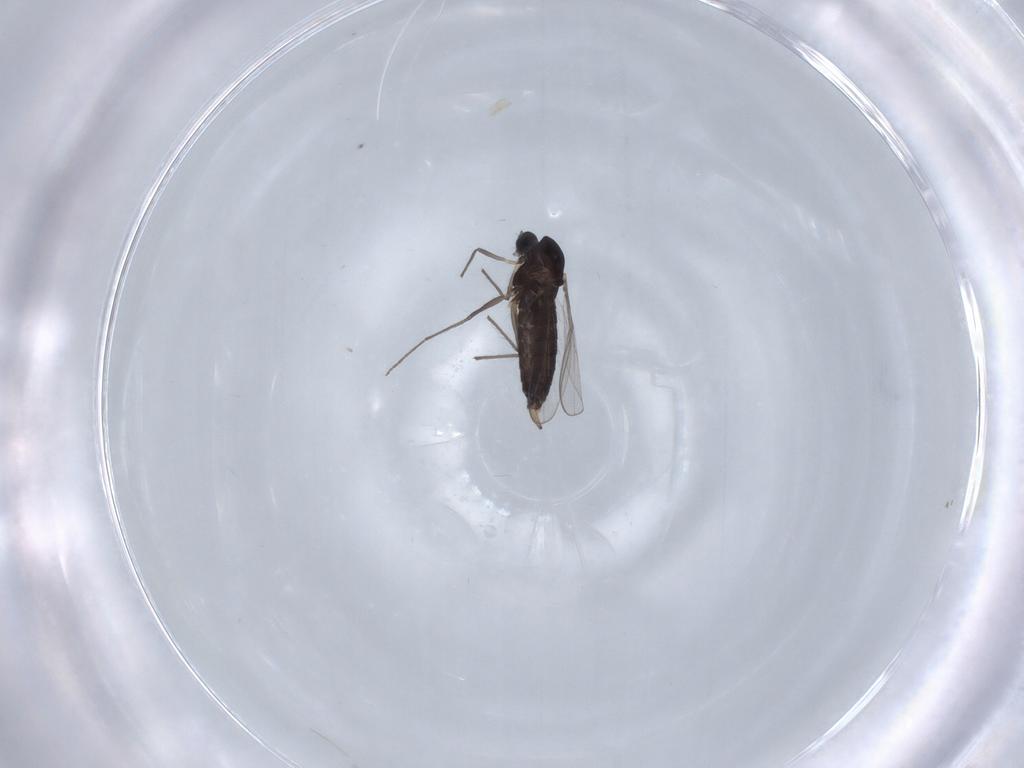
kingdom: Animalia
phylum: Arthropoda
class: Insecta
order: Diptera
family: Chironomidae
